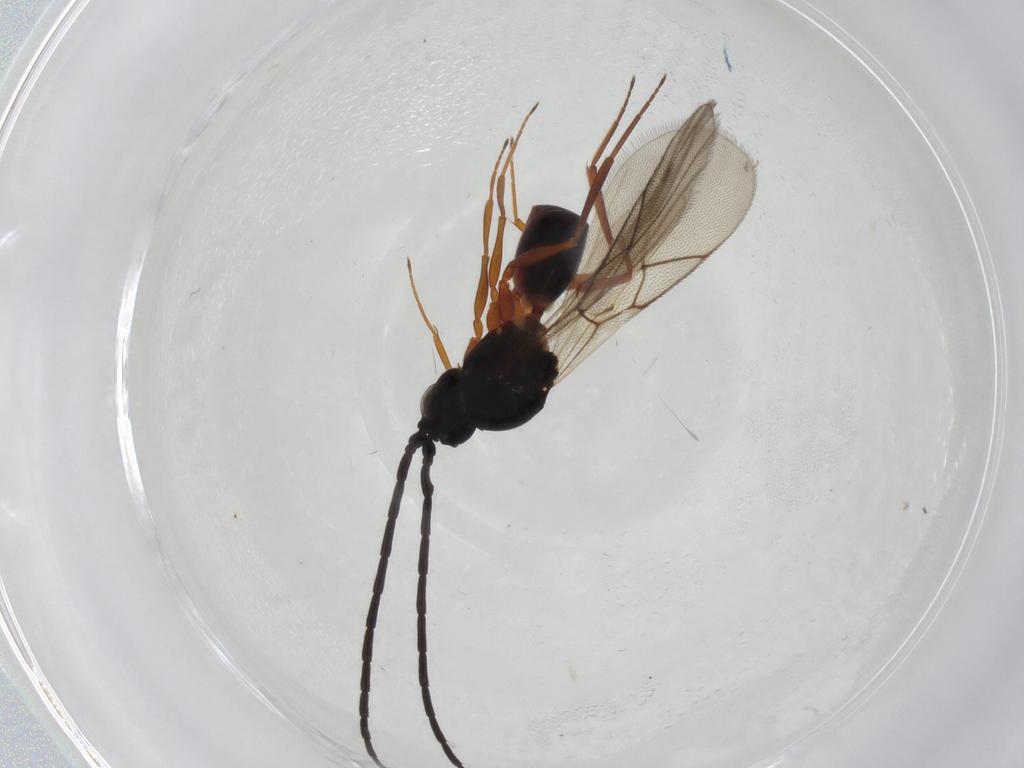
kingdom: Animalia
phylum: Arthropoda
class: Insecta
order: Hymenoptera
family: Figitidae
